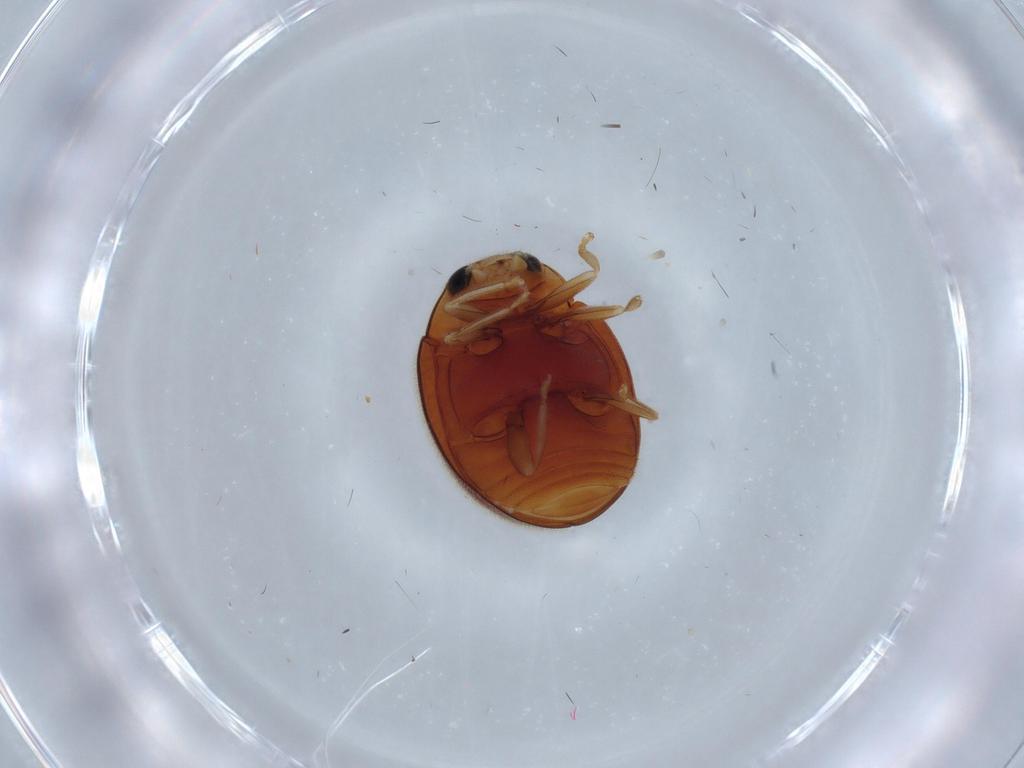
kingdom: Animalia
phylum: Arthropoda
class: Insecta
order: Coleoptera
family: Coccinellidae
